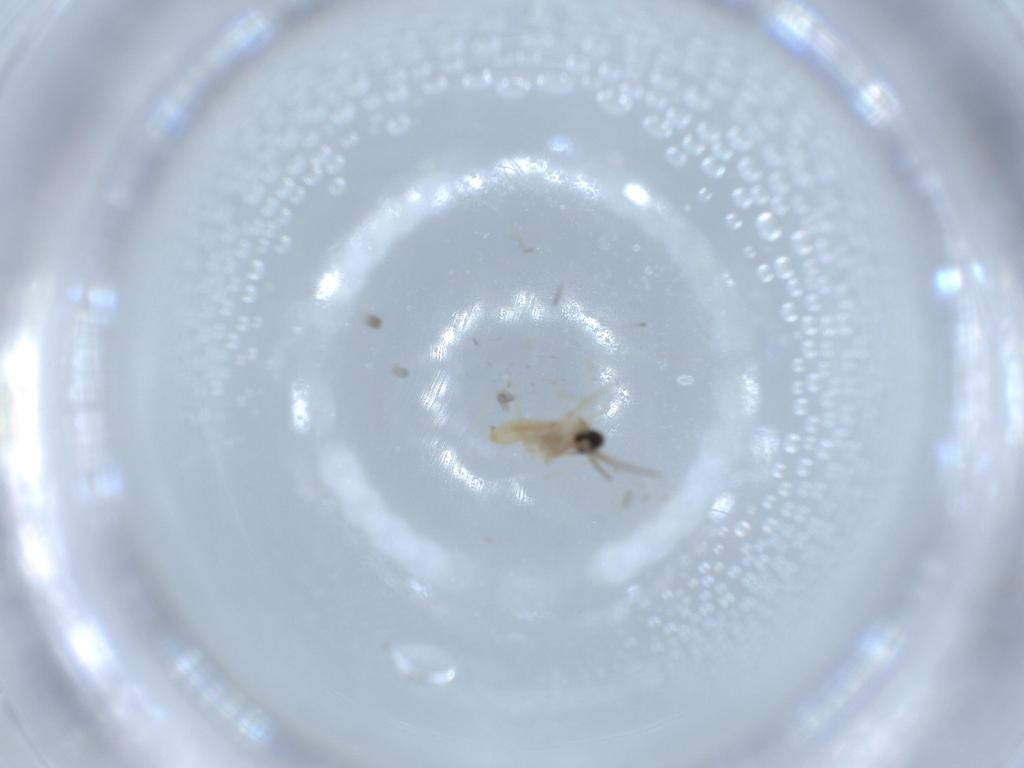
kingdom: Animalia
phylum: Arthropoda
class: Insecta
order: Diptera
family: Cecidomyiidae
